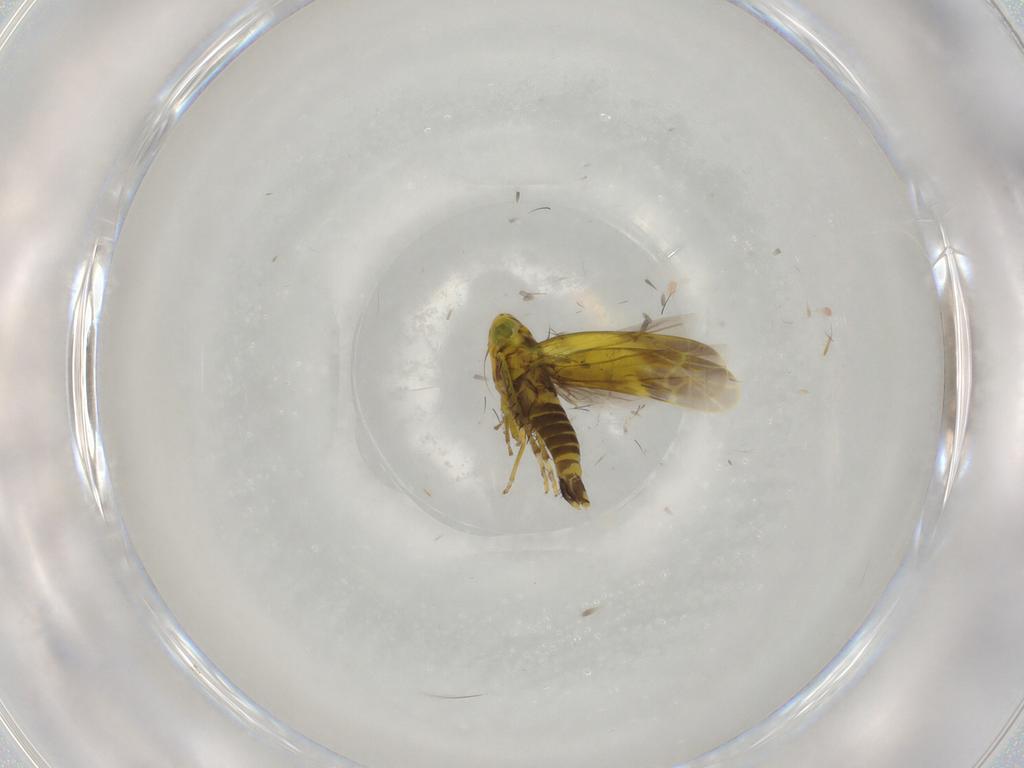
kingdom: Animalia
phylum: Arthropoda
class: Insecta
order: Hemiptera
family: Cicadellidae
